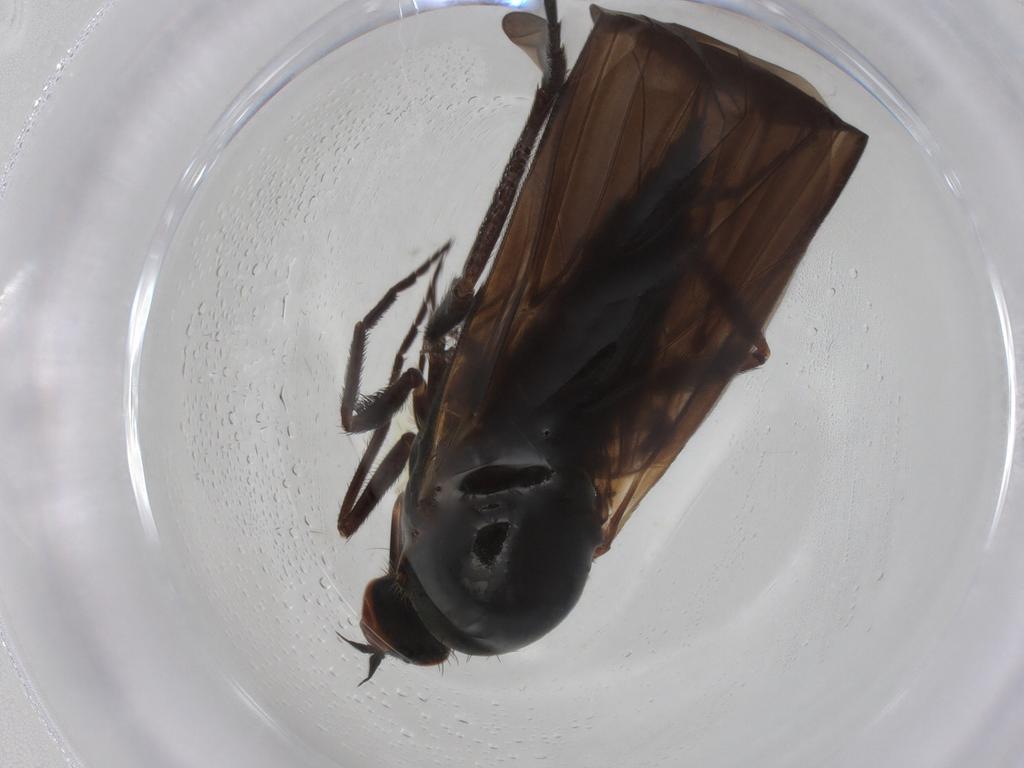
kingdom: Animalia
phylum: Arthropoda
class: Insecta
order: Diptera
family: Empididae
